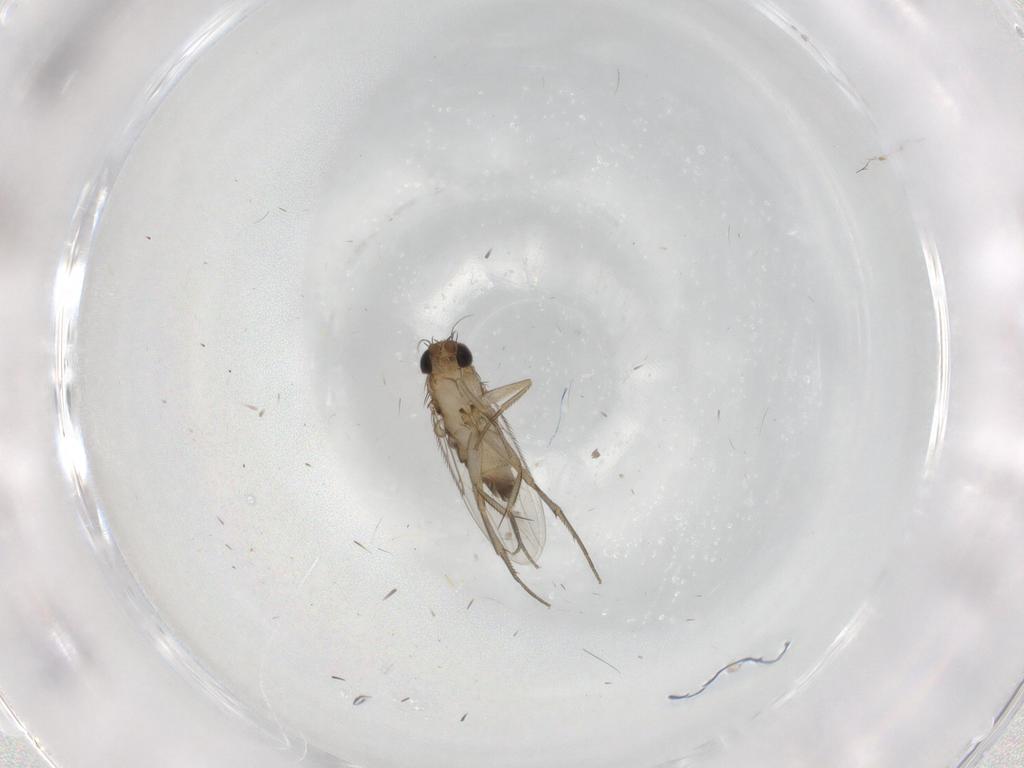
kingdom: Animalia
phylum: Arthropoda
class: Insecta
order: Diptera
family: Phoridae
